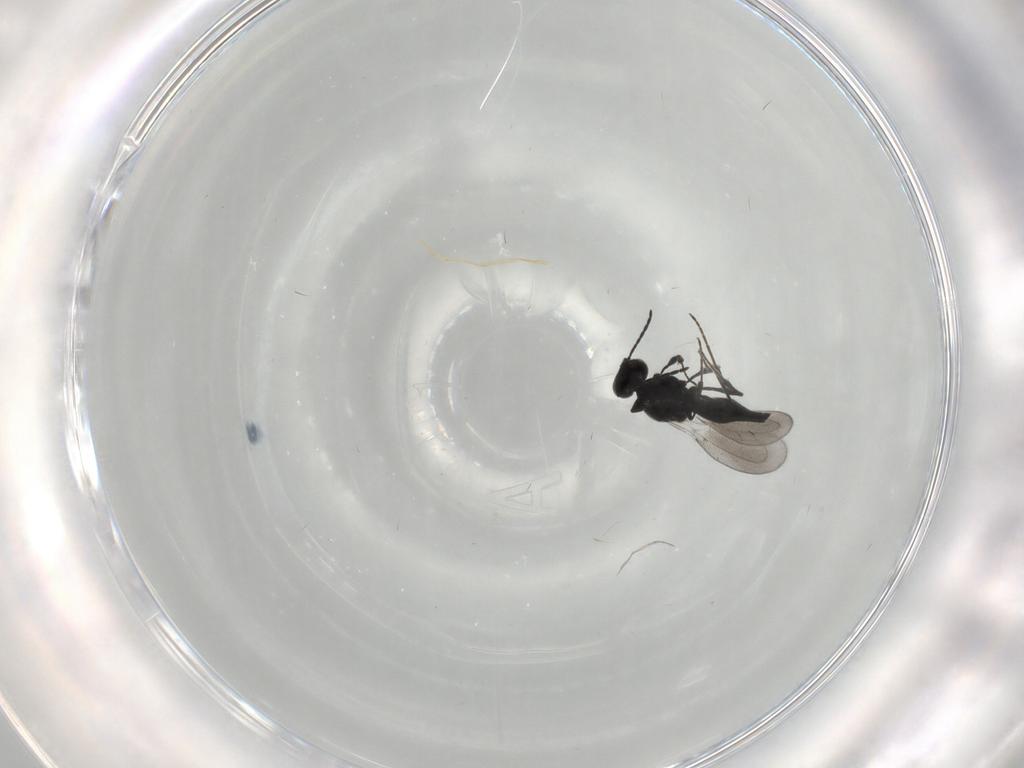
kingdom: Animalia
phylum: Arthropoda
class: Insecta
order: Diptera
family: Mythicomyiidae
